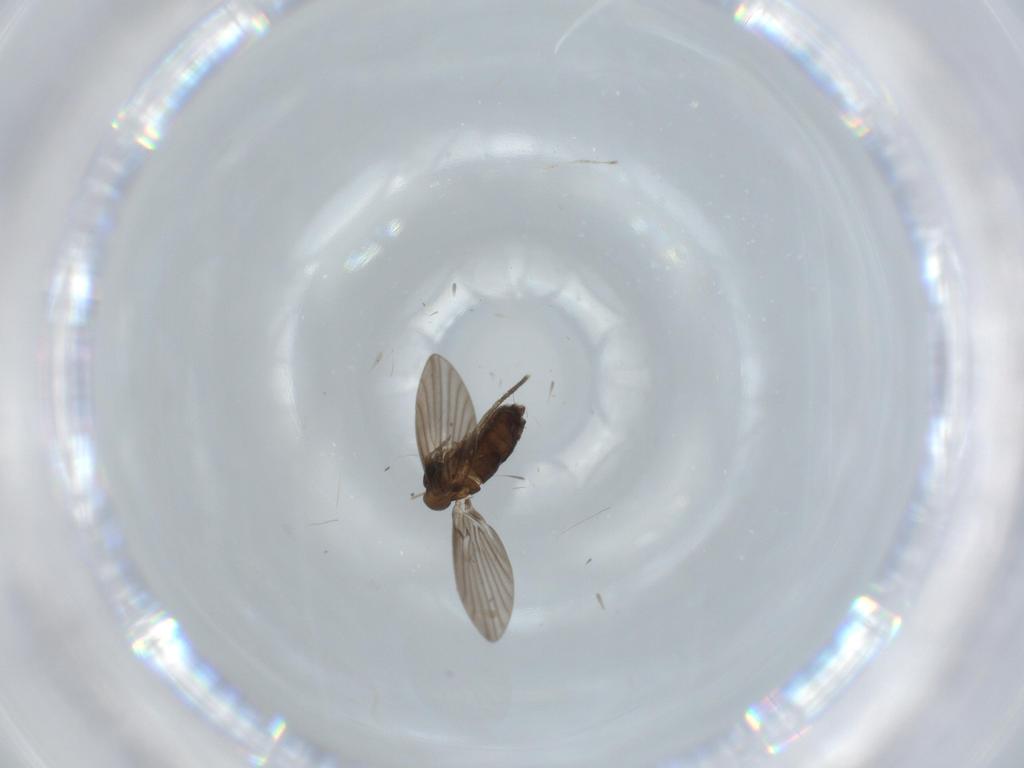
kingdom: Animalia
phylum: Arthropoda
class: Insecta
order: Diptera
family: Psychodidae
